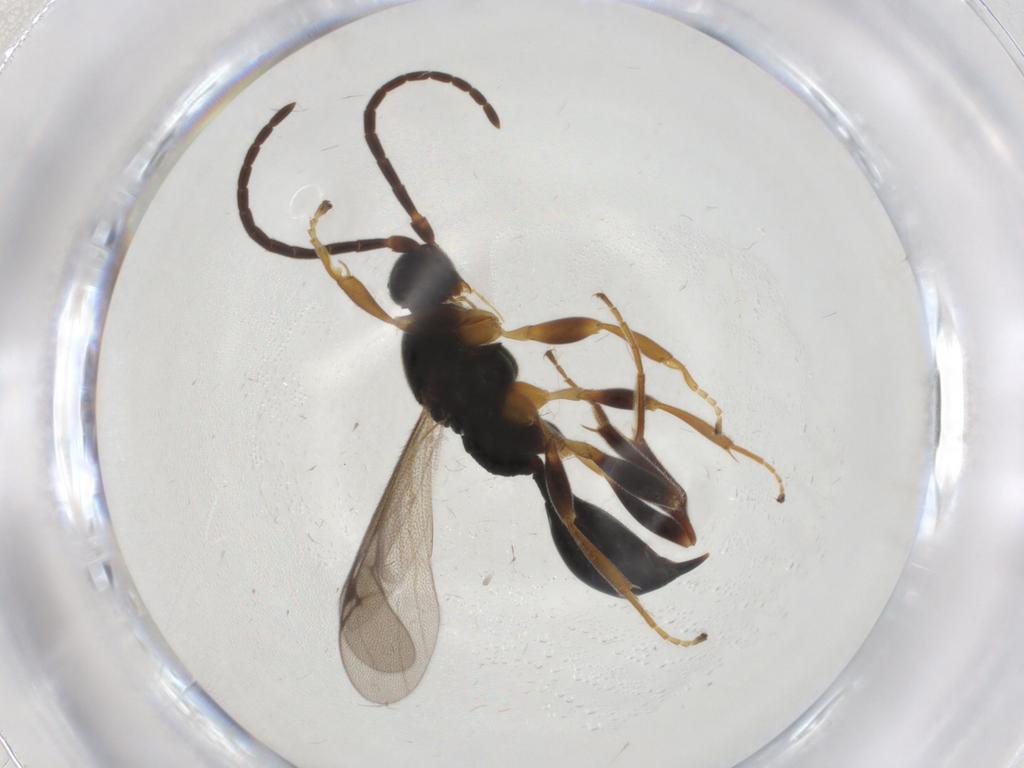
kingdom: Animalia
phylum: Arthropoda
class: Insecta
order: Hymenoptera
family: Proctotrupidae
